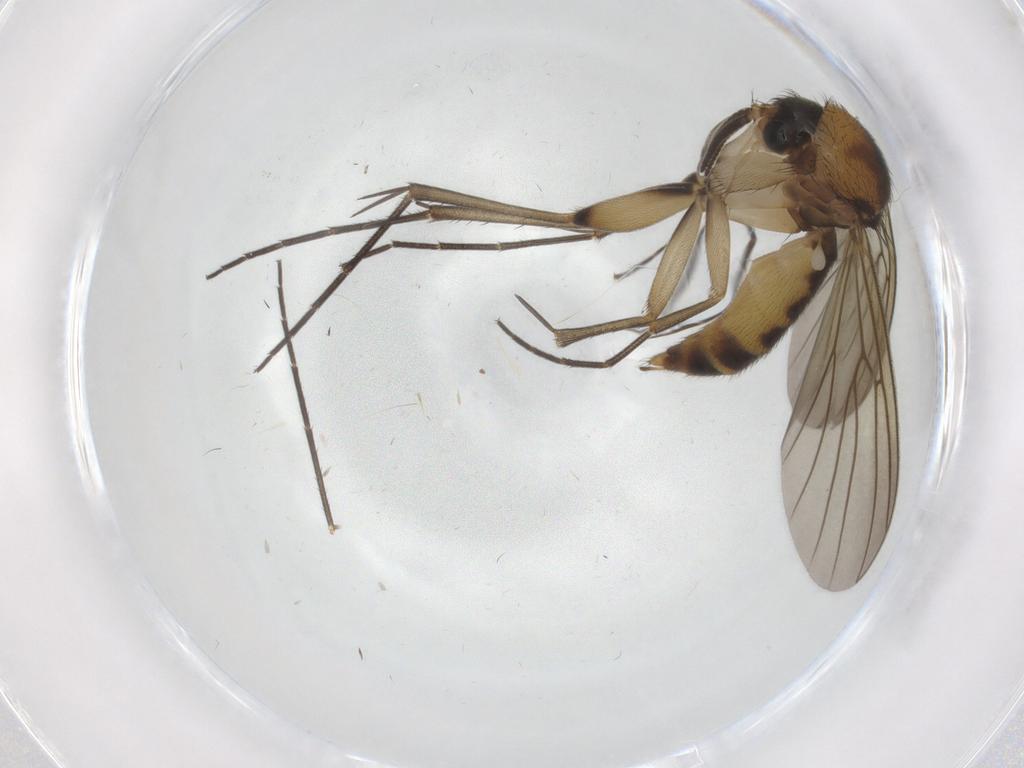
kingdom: Animalia
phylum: Arthropoda
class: Insecta
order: Diptera
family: Mycetophilidae
